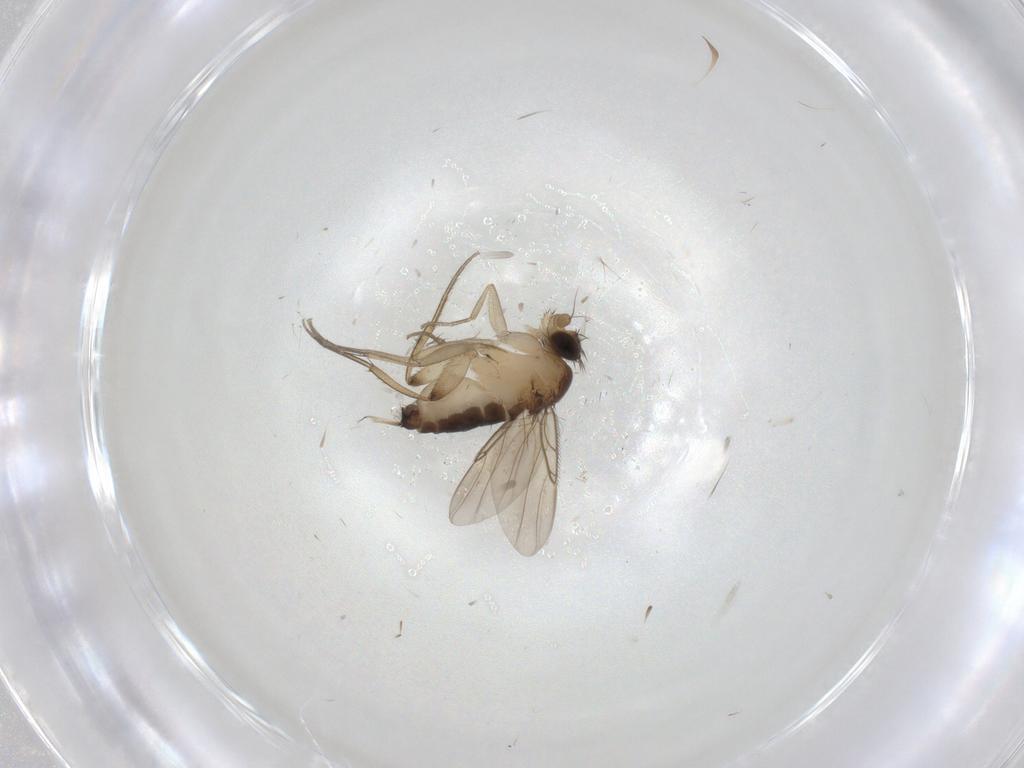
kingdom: Animalia
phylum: Arthropoda
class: Insecta
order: Diptera
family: Phoridae
